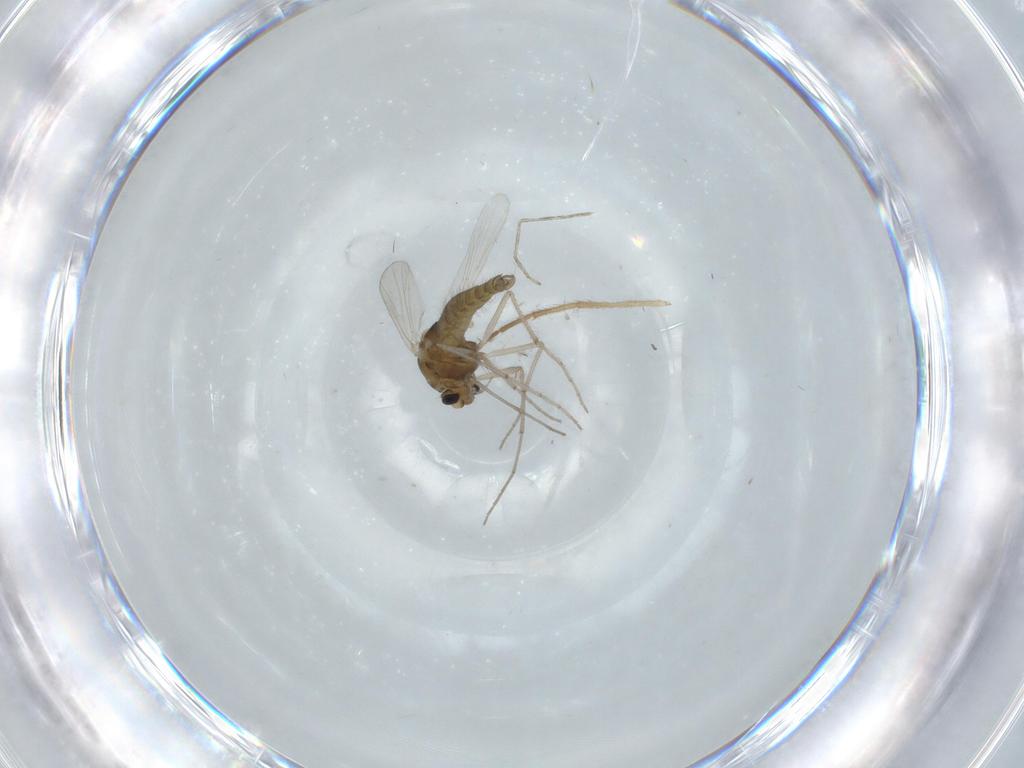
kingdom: Animalia
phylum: Arthropoda
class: Insecta
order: Diptera
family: Chironomidae
